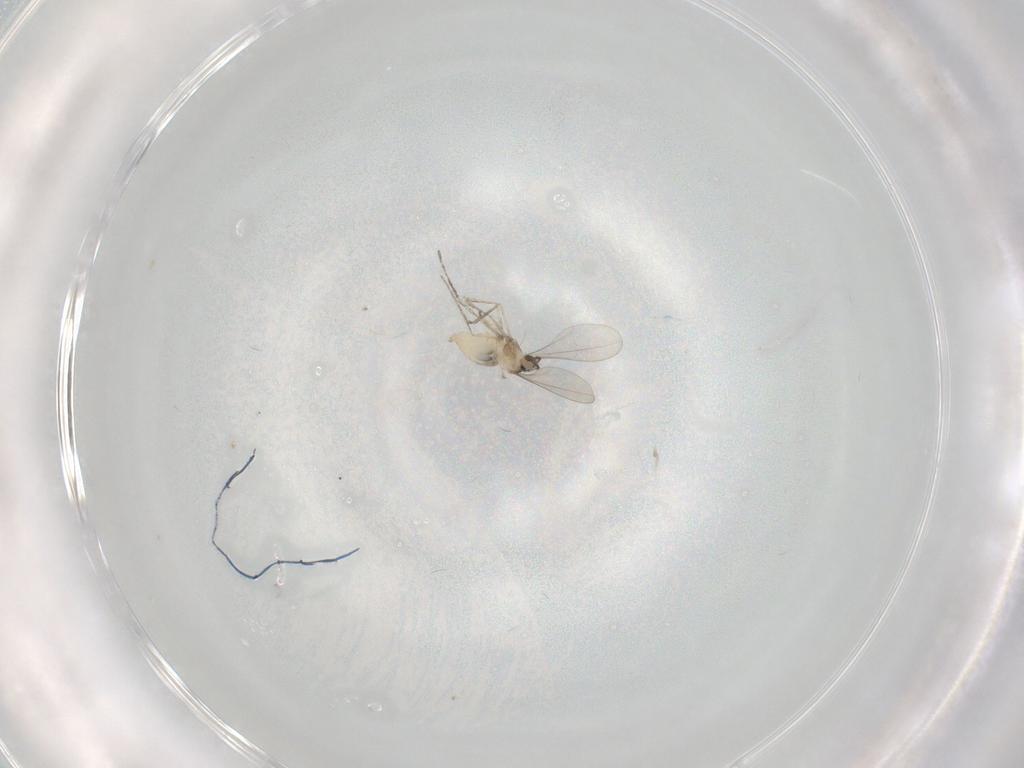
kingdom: Animalia
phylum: Arthropoda
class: Insecta
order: Diptera
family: Cecidomyiidae
